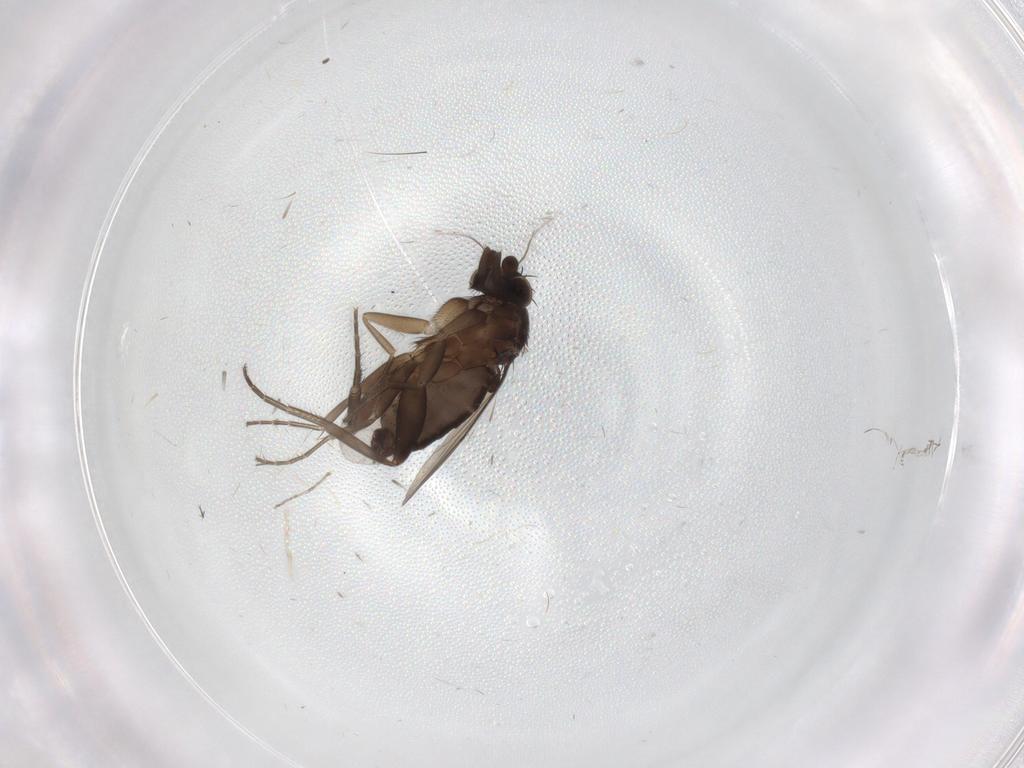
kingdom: Animalia
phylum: Arthropoda
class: Insecta
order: Diptera
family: Phoridae
